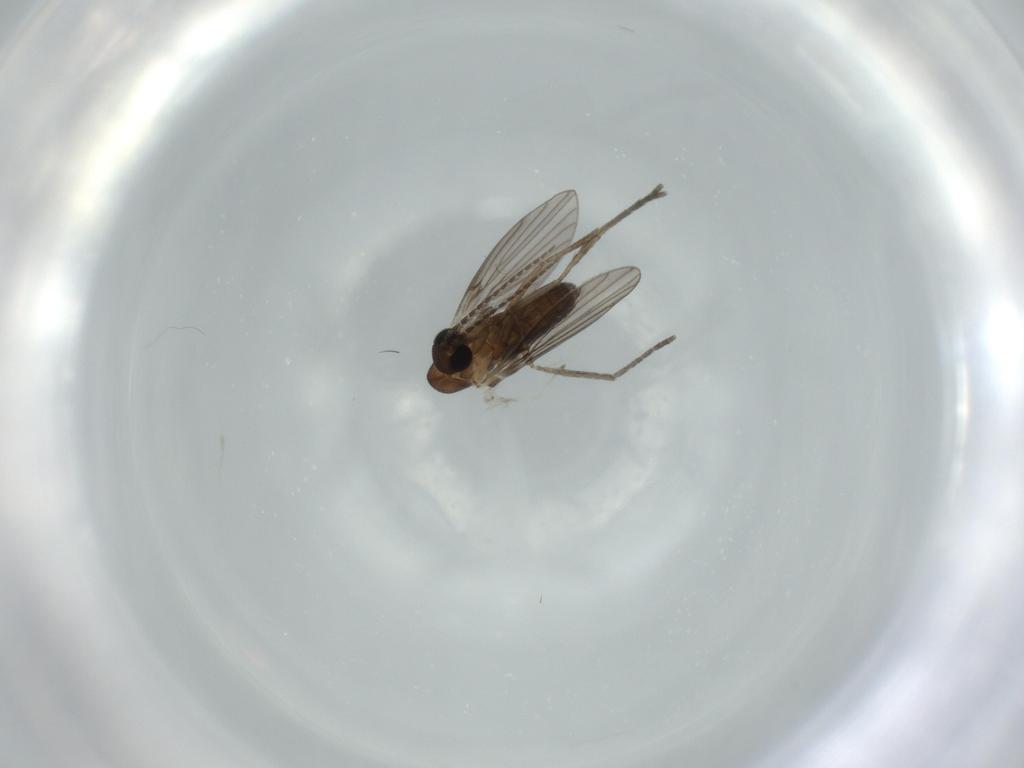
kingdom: Animalia
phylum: Arthropoda
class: Insecta
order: Diptera
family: Psychodidae
